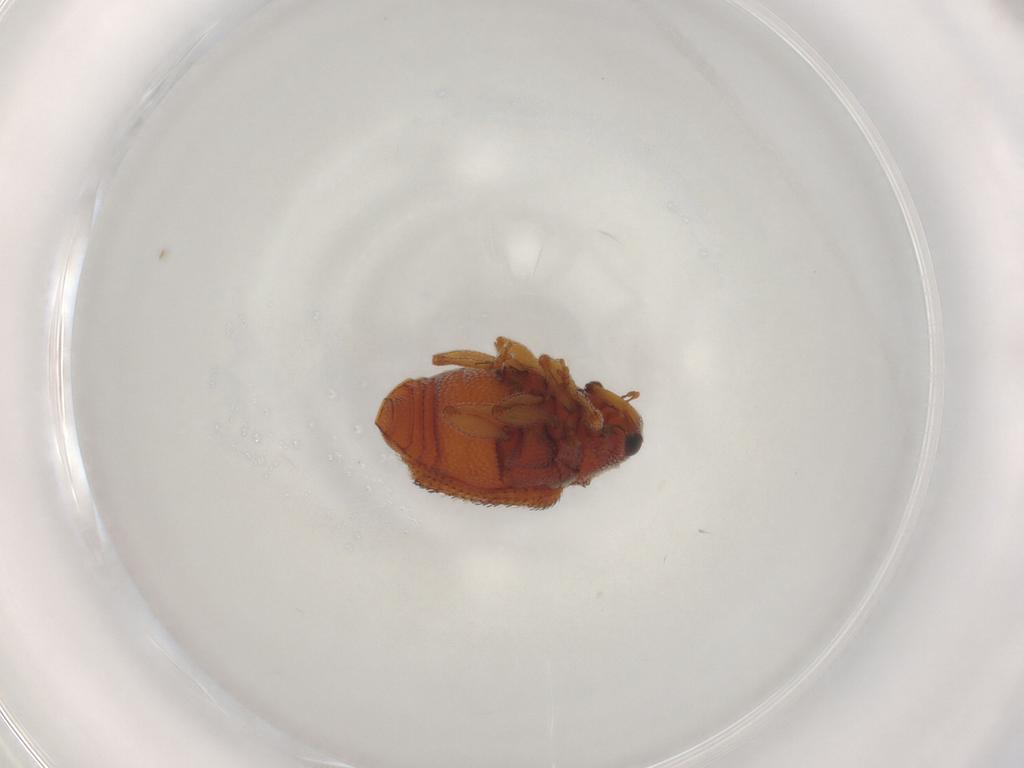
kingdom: Animalia
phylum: Arthropoda
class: Insecta
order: Coleoptera
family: Curculionidae
